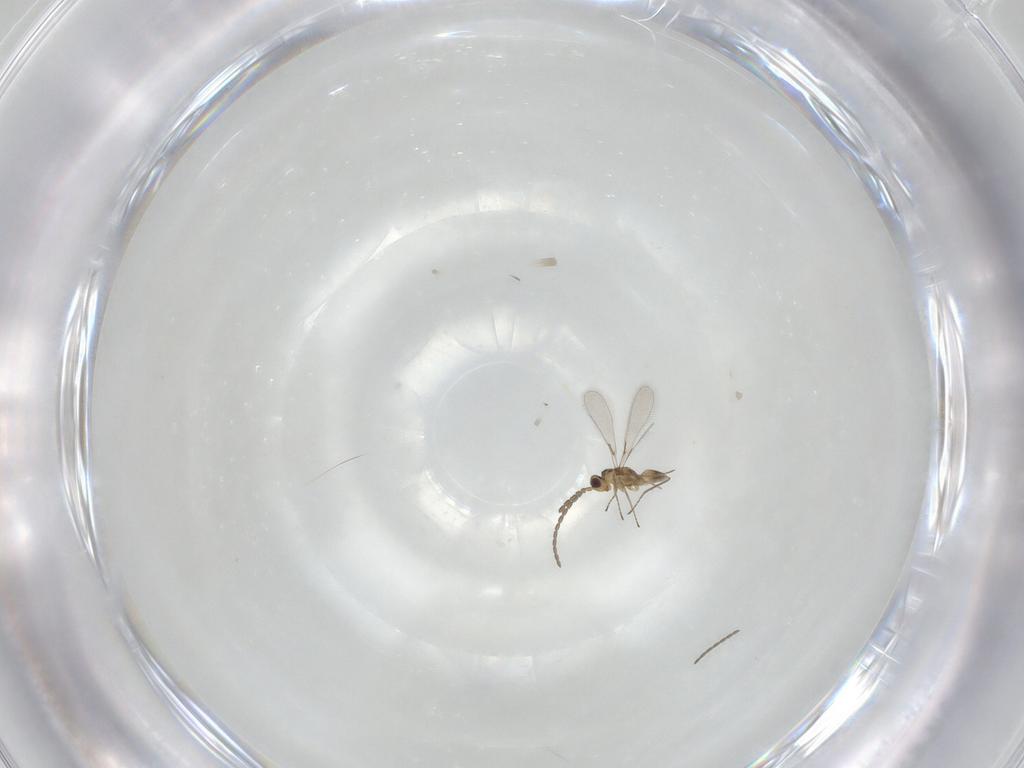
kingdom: Animalia
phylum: Arthropoda
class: Insecta
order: Hymenoptera
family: Mymaridae
